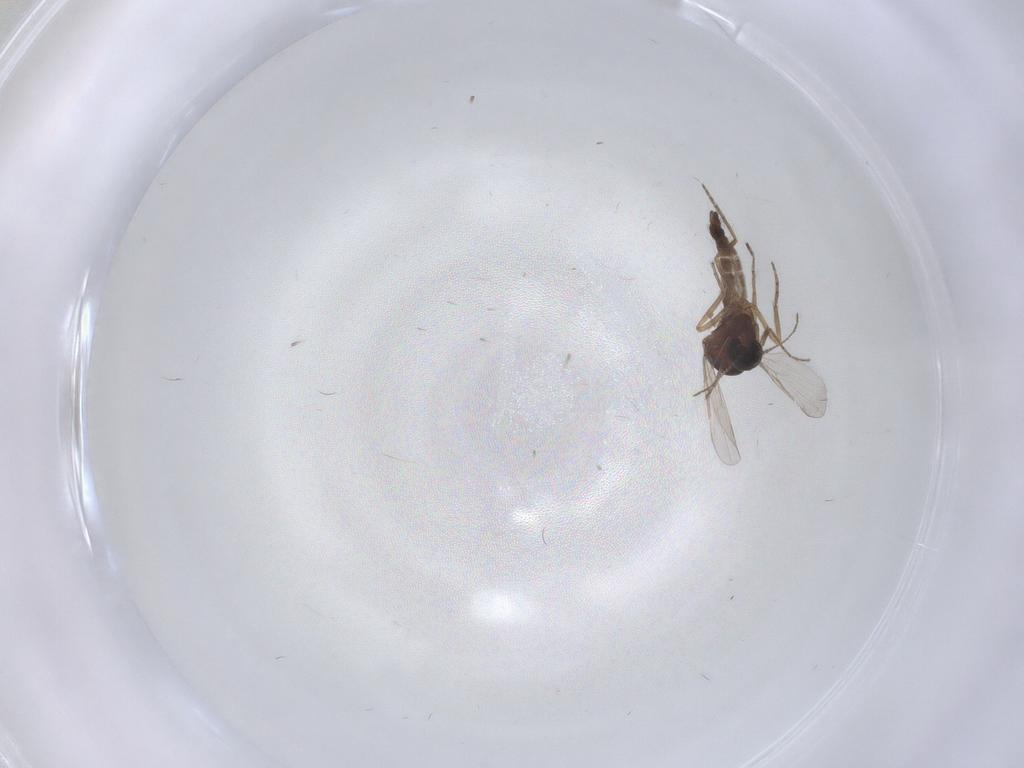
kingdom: Animalia
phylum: Arthropoda
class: Insecta
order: Diptera
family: Ceratopogonidae
